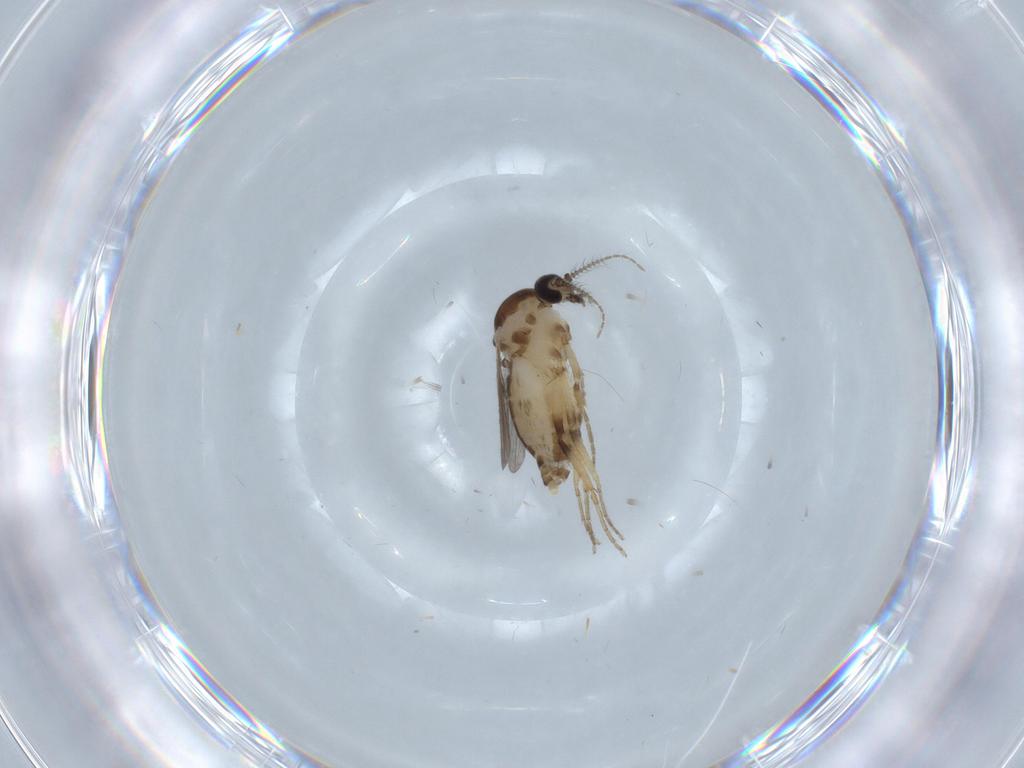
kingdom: Animalia
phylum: Arthropoda
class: Insecta
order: Diptera
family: Ceratopogonidae
